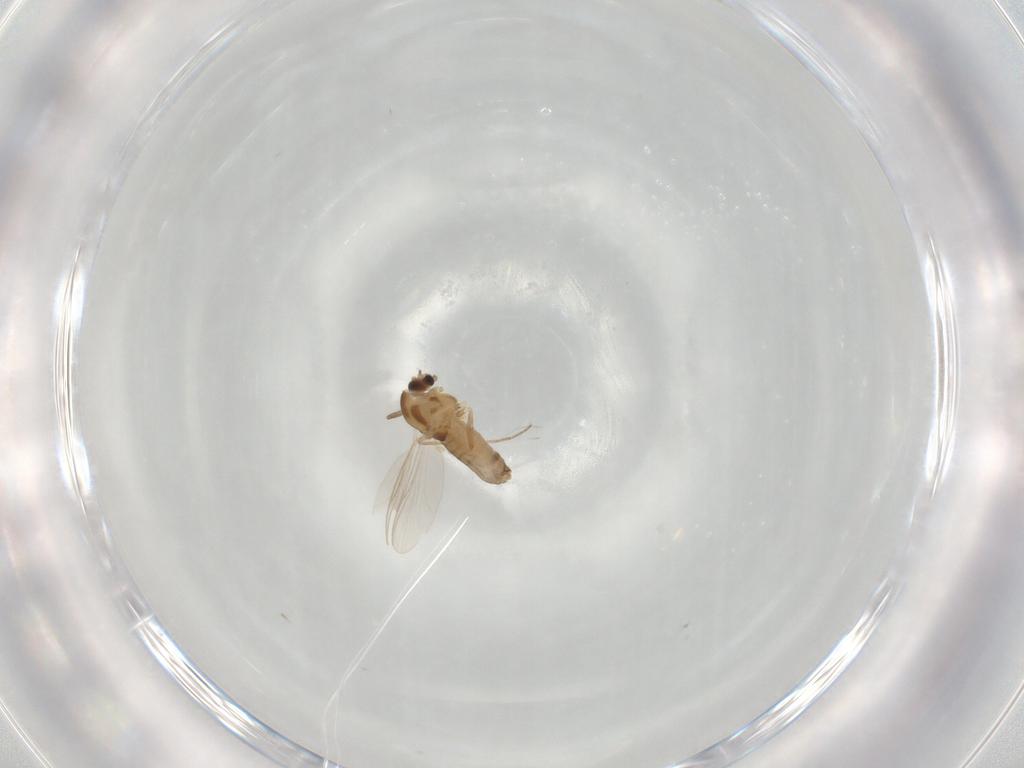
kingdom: Animalia
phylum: Arthropoda
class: Insecta
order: Diptera
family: Chironomidae
